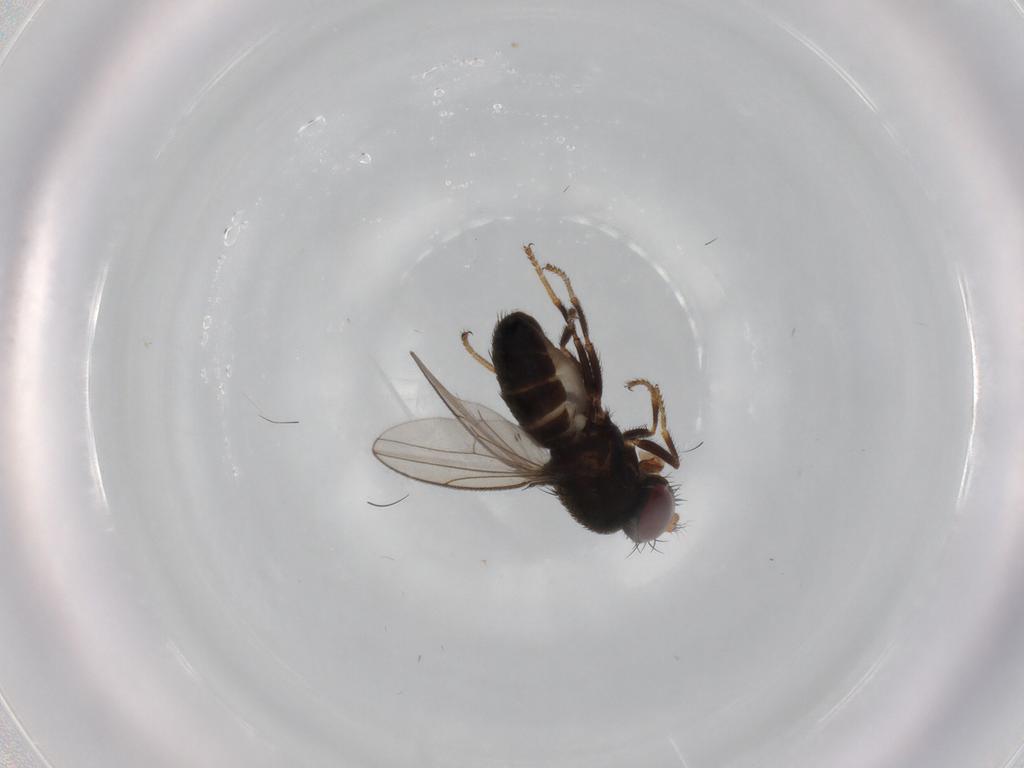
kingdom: Animalia
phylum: Arthropoda
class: Insecta
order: Diptera
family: Ephydridae
